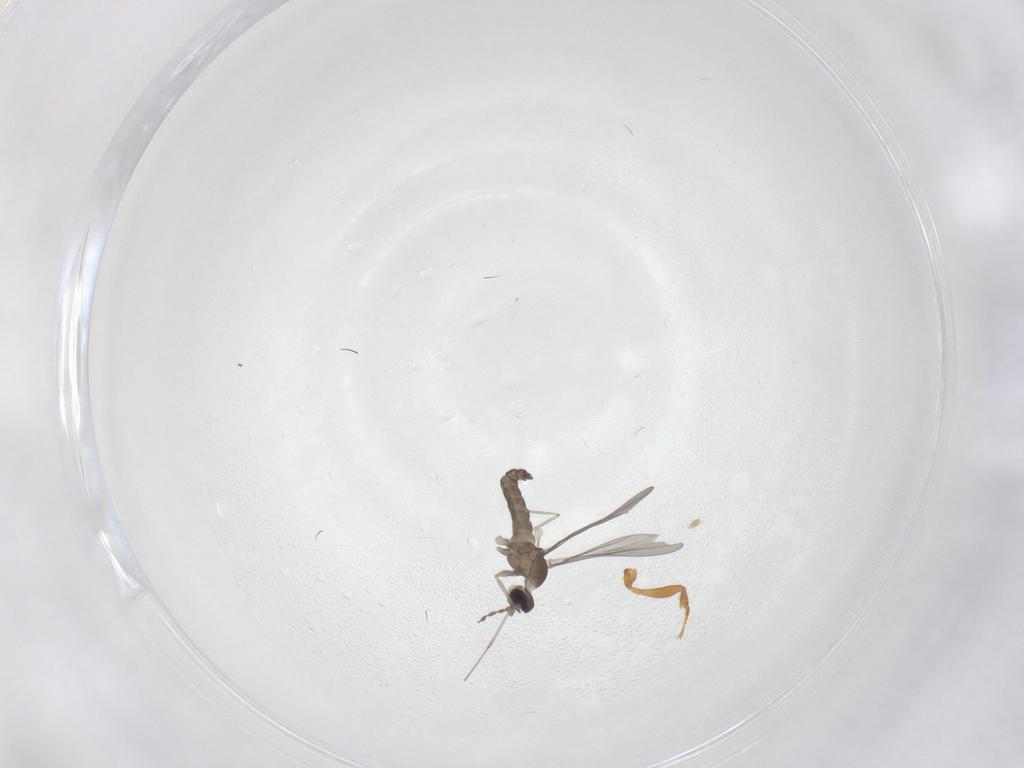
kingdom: Animalia
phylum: Arthropoda
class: Insecta
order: Diptera
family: Chironomidae
